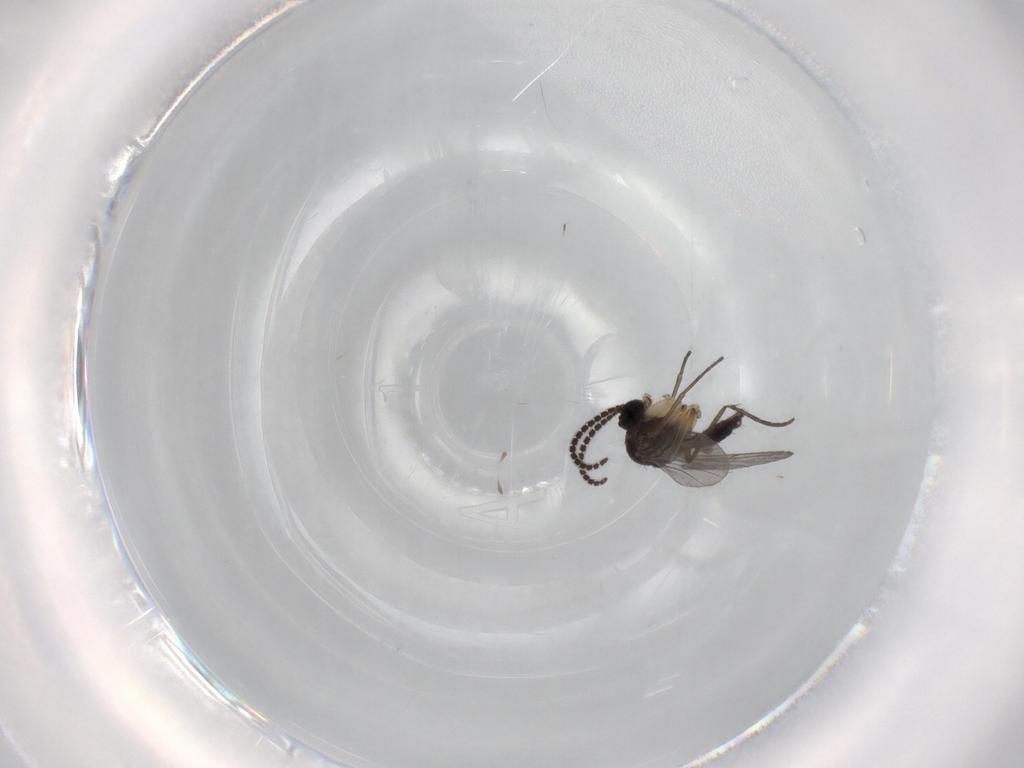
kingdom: Animalia
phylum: Arthropoda
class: Insecta
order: Diptera
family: Sciaridae
